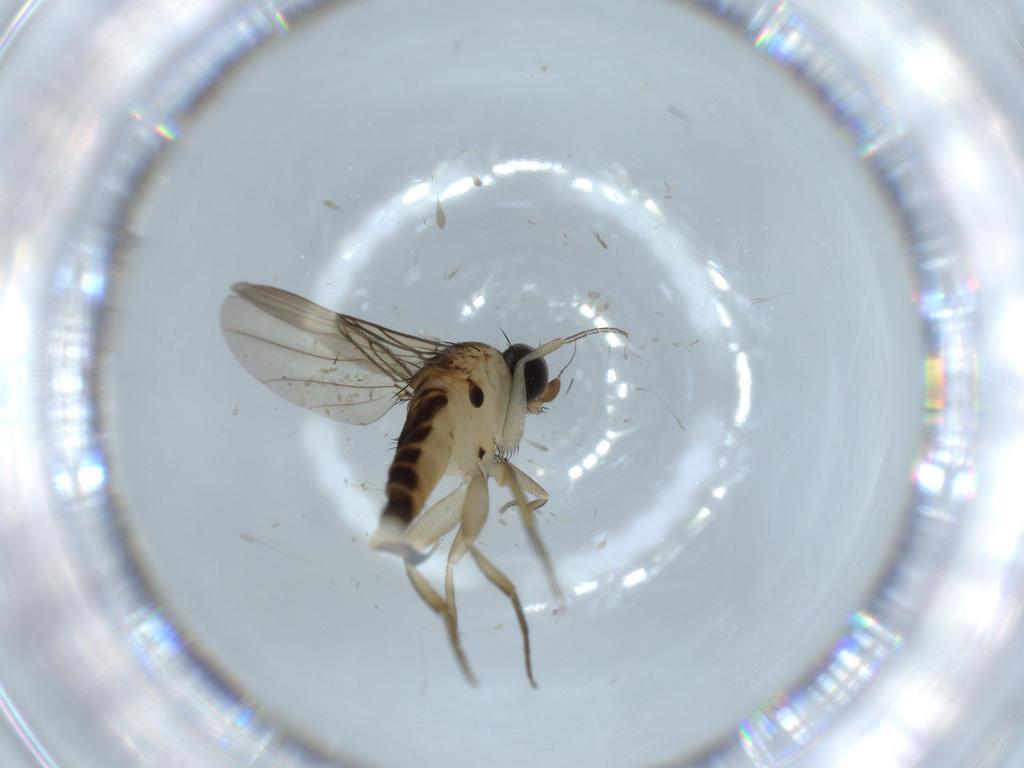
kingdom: Animalia
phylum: Arthropoda
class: Insecta
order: Diptera
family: Phoridae
